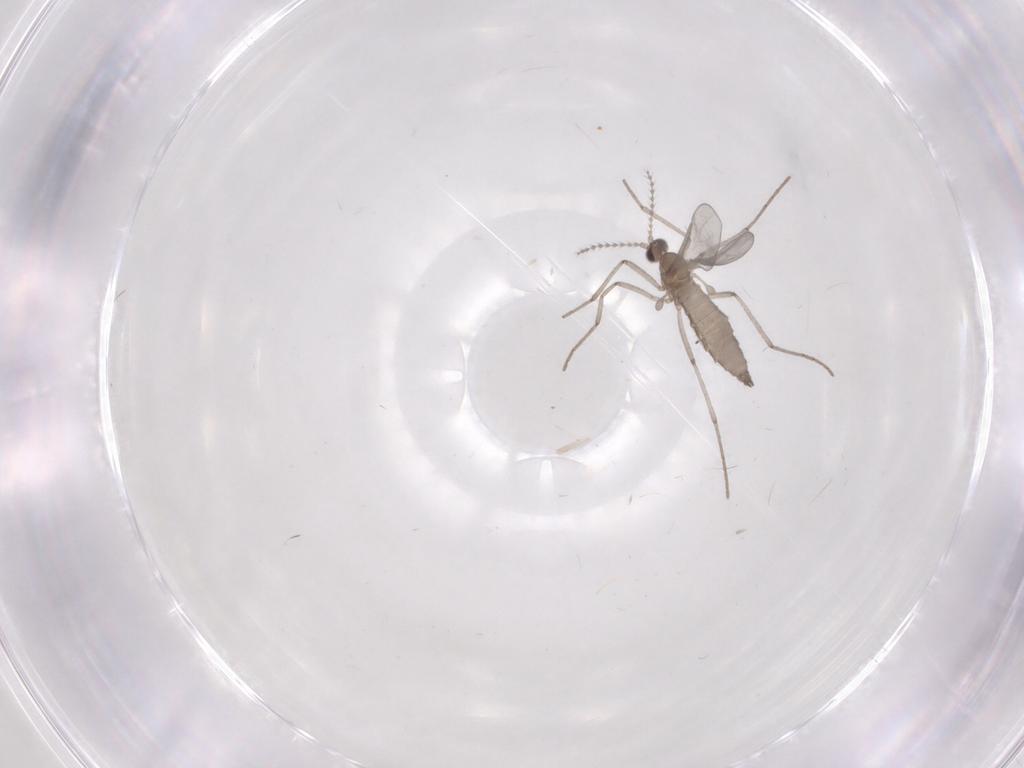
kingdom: Animalia
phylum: Arthropoda
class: Insecta
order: Diptera
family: Cecidomyiidae
